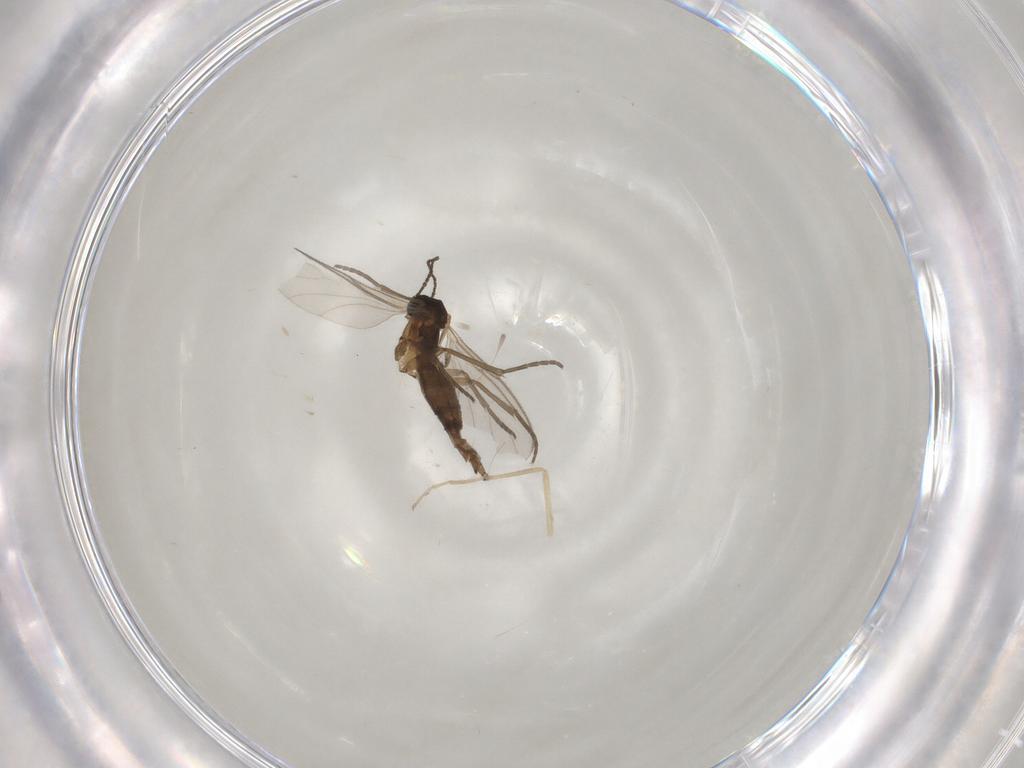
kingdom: Animalia
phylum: Arthropoda
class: Insecta
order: Diptera
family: Sciaridae
